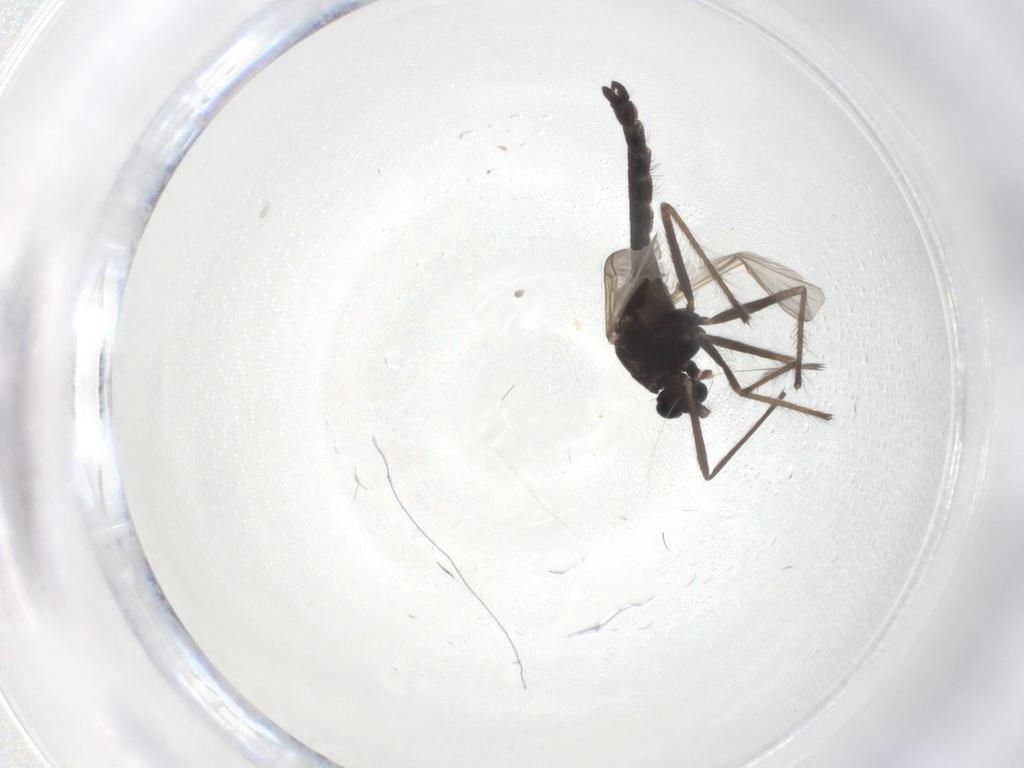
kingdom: Animalia
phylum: Arthropoda
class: Insecta
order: Diptera
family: Chironomidae
